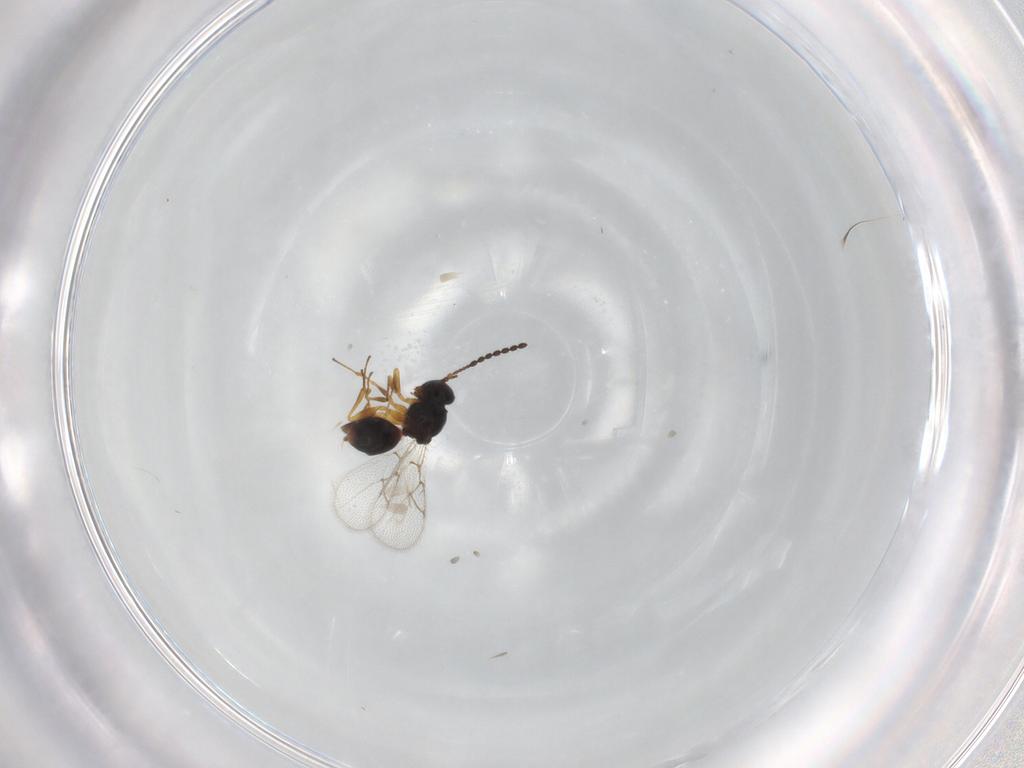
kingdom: Animalia
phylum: Arthropoda
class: Insecta
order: Hymenoptera
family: Figitidae
